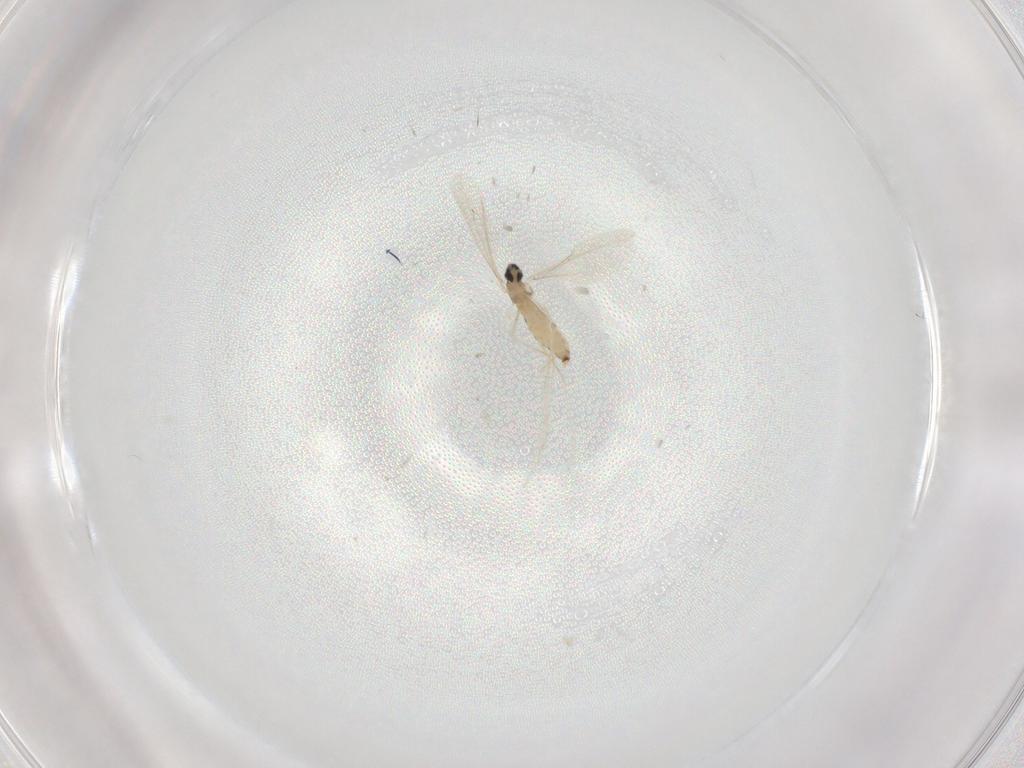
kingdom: Animalia
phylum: Arthropoda
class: Insecta
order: Diptera
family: Cecidomyiidae
